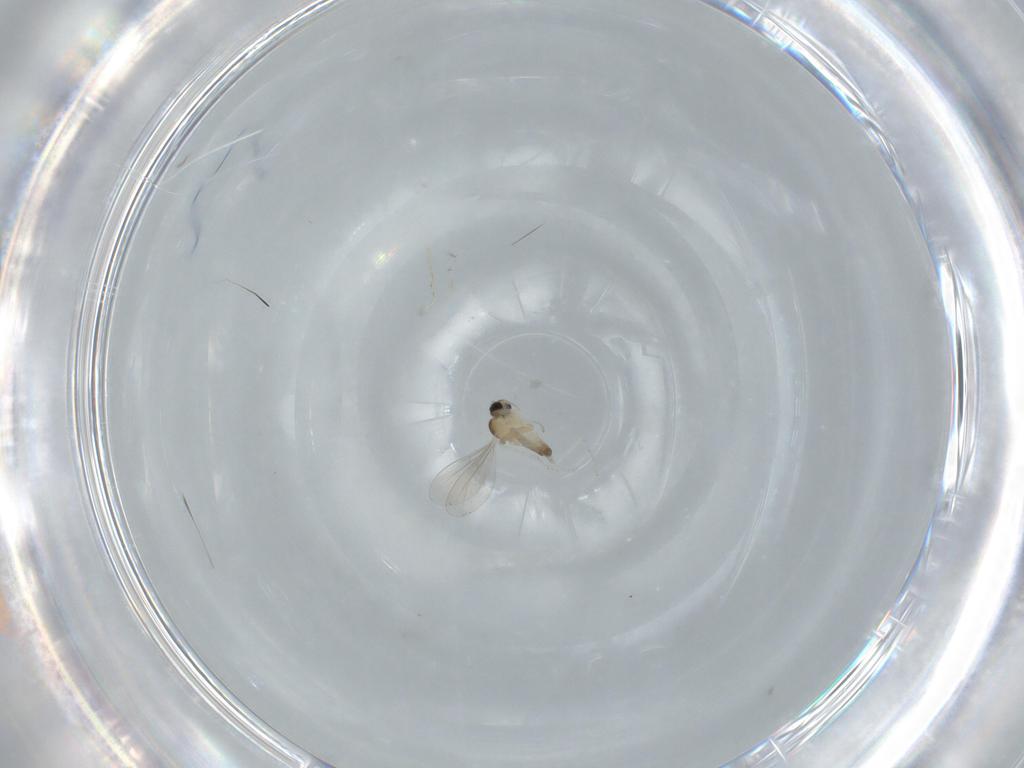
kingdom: Animalia
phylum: Arthropoda
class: Insecta
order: Diptera
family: Cecidomyiidae
